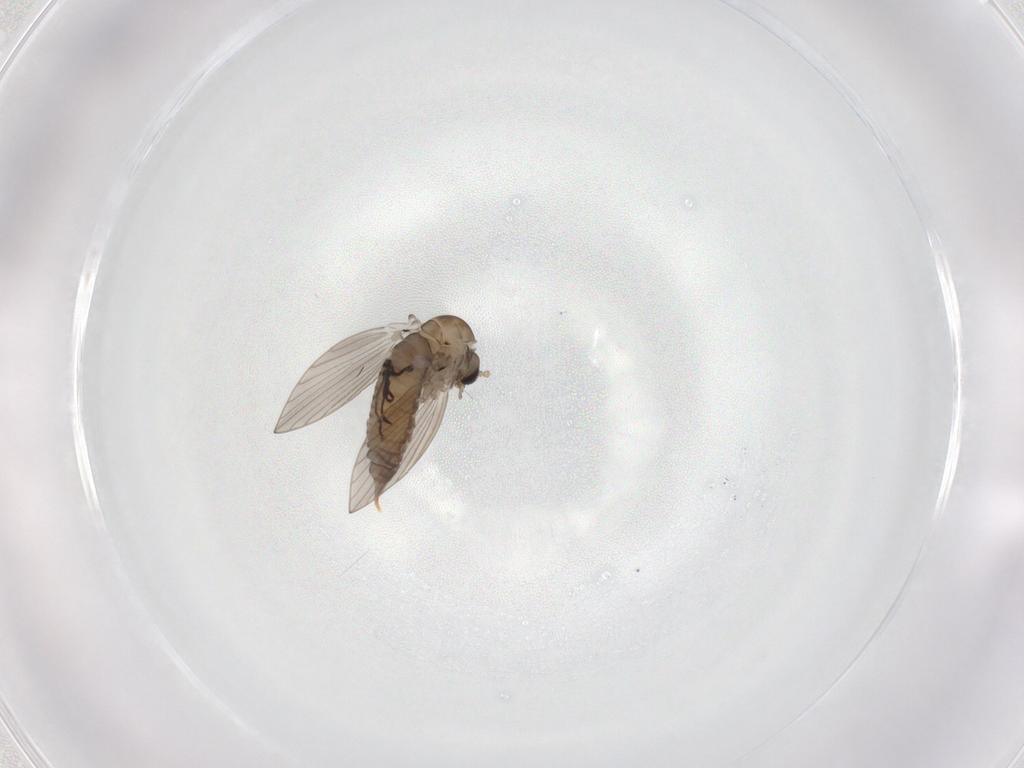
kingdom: Animalia
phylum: Arthropoda
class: Insecta
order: Diptera
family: Psychodidae
